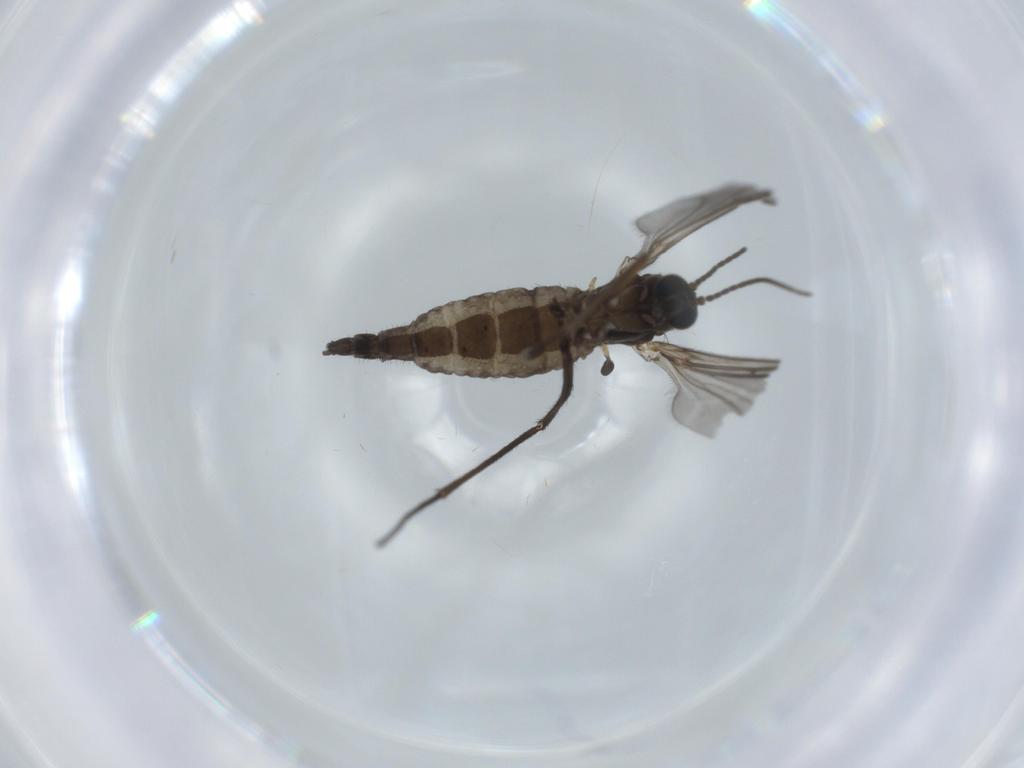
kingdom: Animalia
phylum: Arthropoda
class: Insecta
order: Diptera
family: Sciaridae
